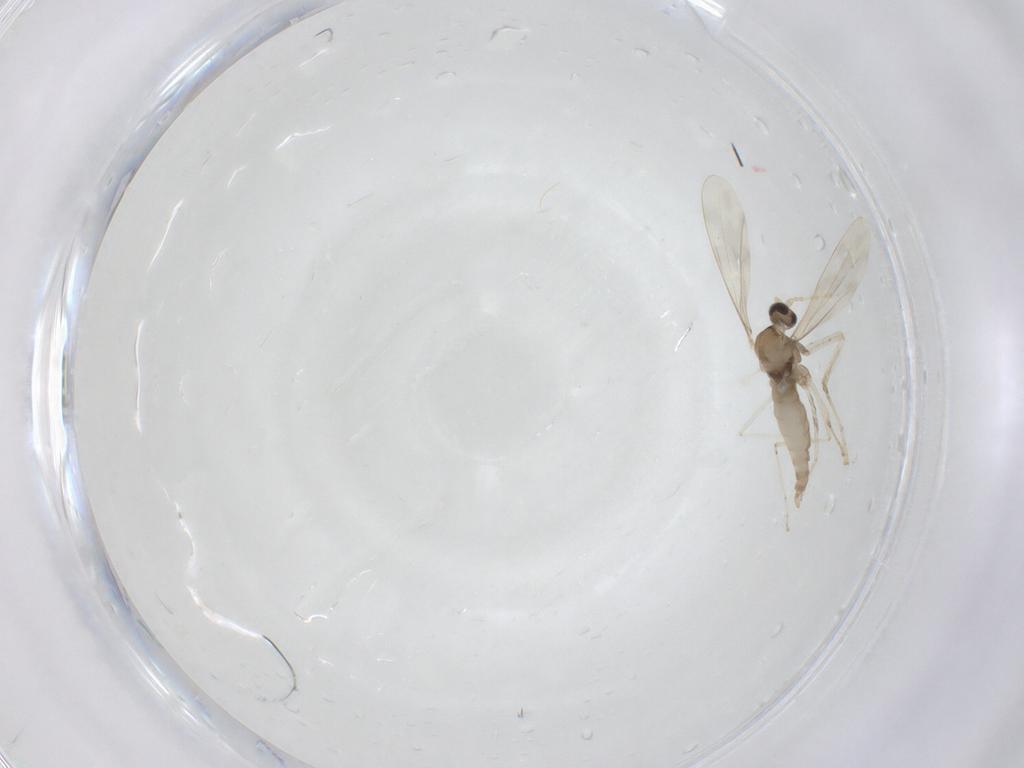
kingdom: Animalia
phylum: Arthropoda
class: Insecta
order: Diptera
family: Cecidomyiidae
